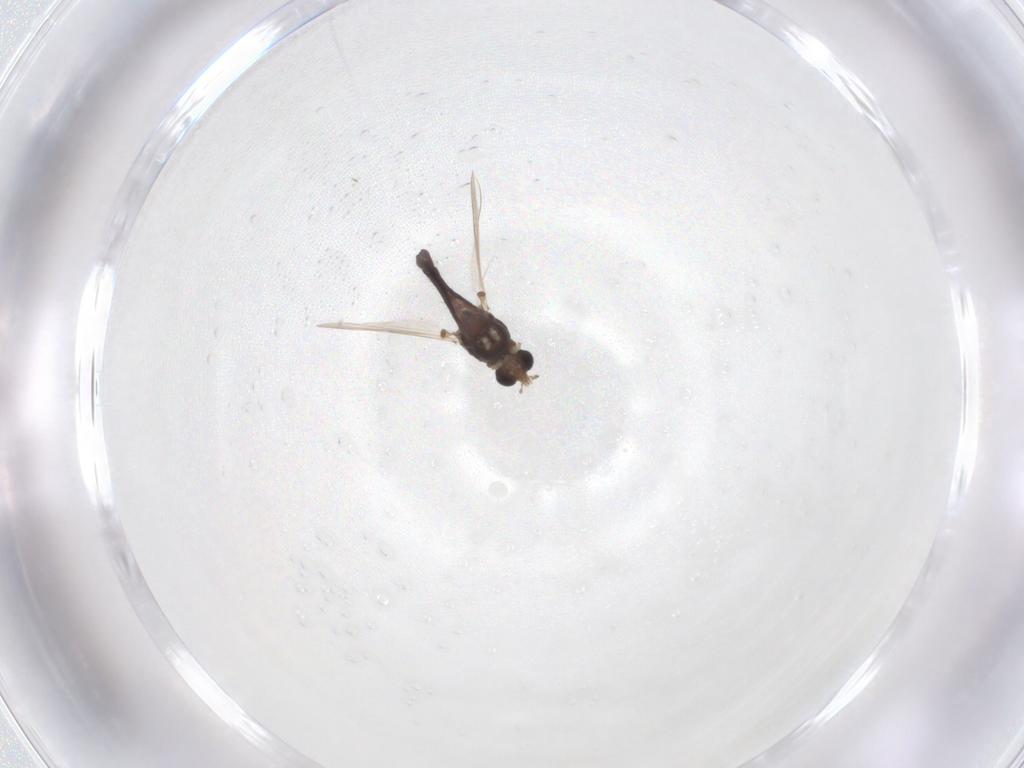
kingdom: Animalia
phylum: Arthropoda
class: Insecta
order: Diptera
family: Chironomidae
